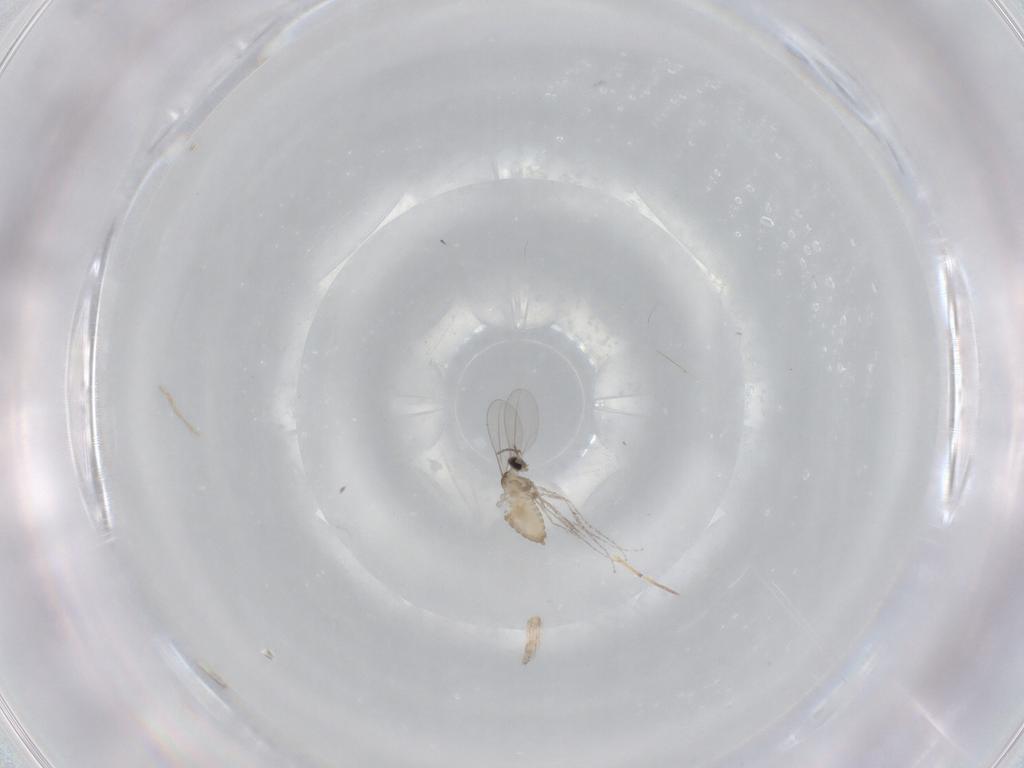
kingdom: Animalia
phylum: Arthropoda
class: Insecta
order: Diptera
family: Cecidomyiidae
